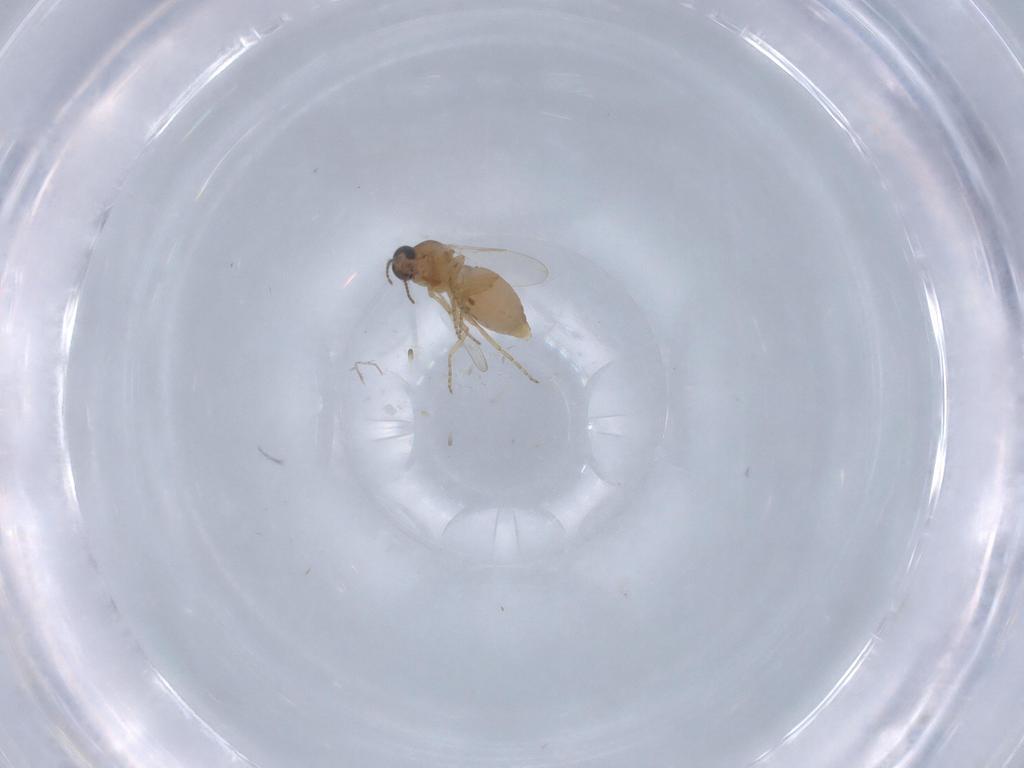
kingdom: Animalia
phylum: Arthropoda
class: Insecta
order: Diptera
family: Ceratopogonidae
